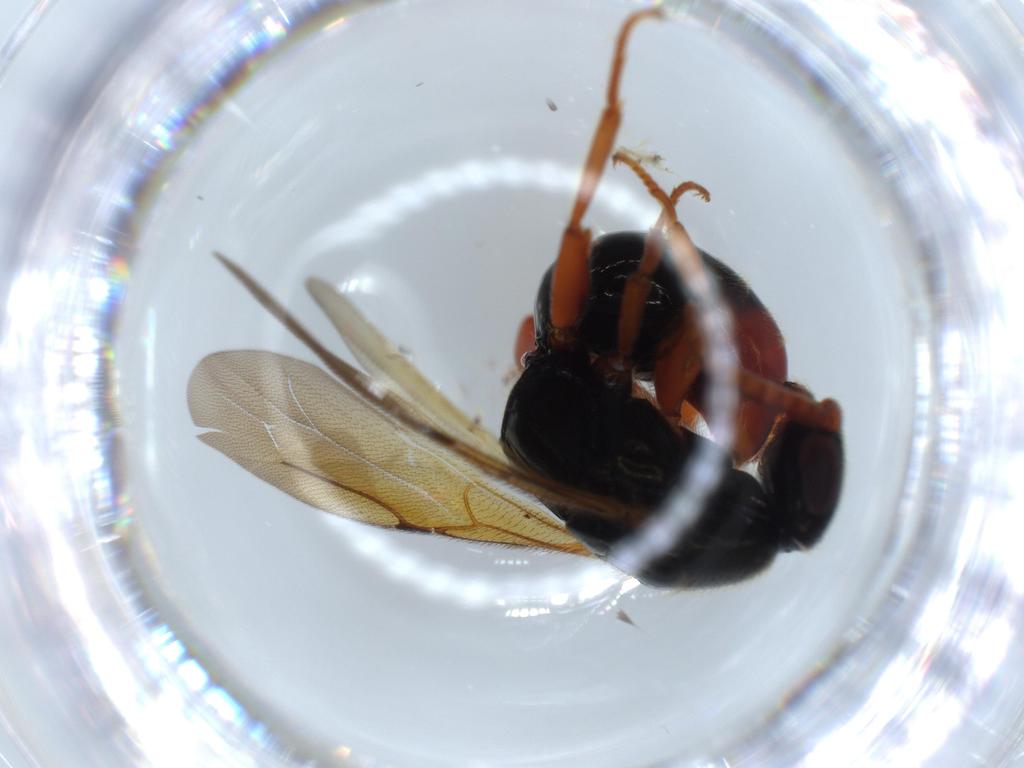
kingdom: Animalia
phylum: Arthropoda
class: Insecta
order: Hymenoptera
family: Bethylidae
